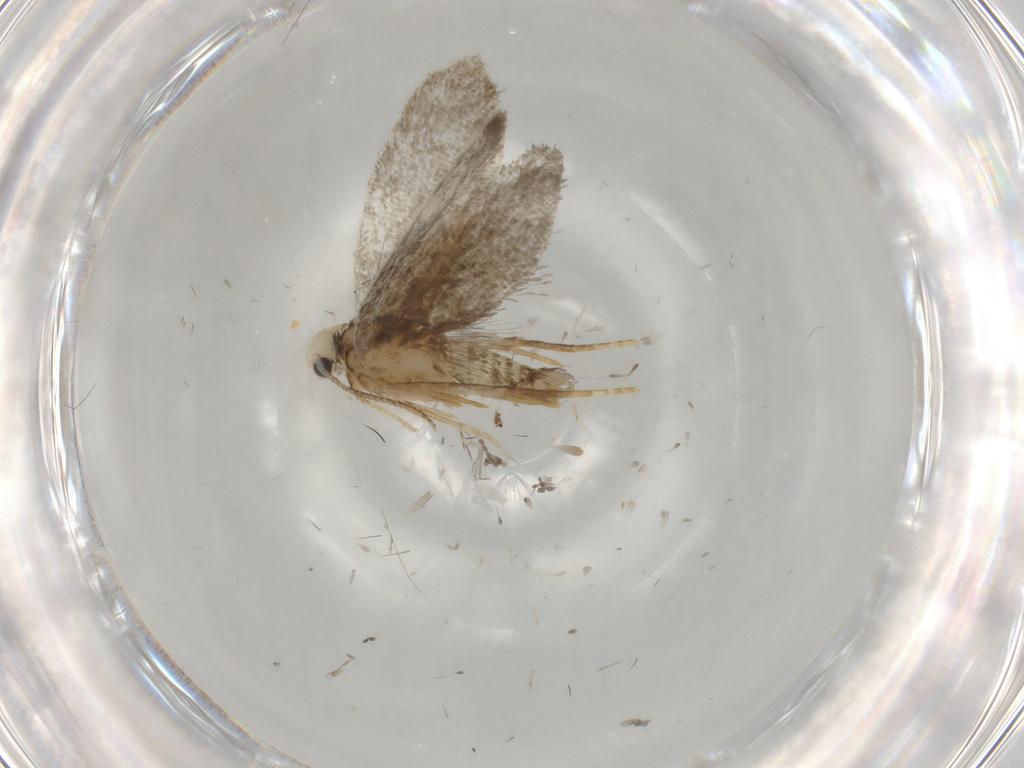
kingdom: Animalia
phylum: Arthropoda
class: Insecta
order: Lepidoptera
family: Psychidae
